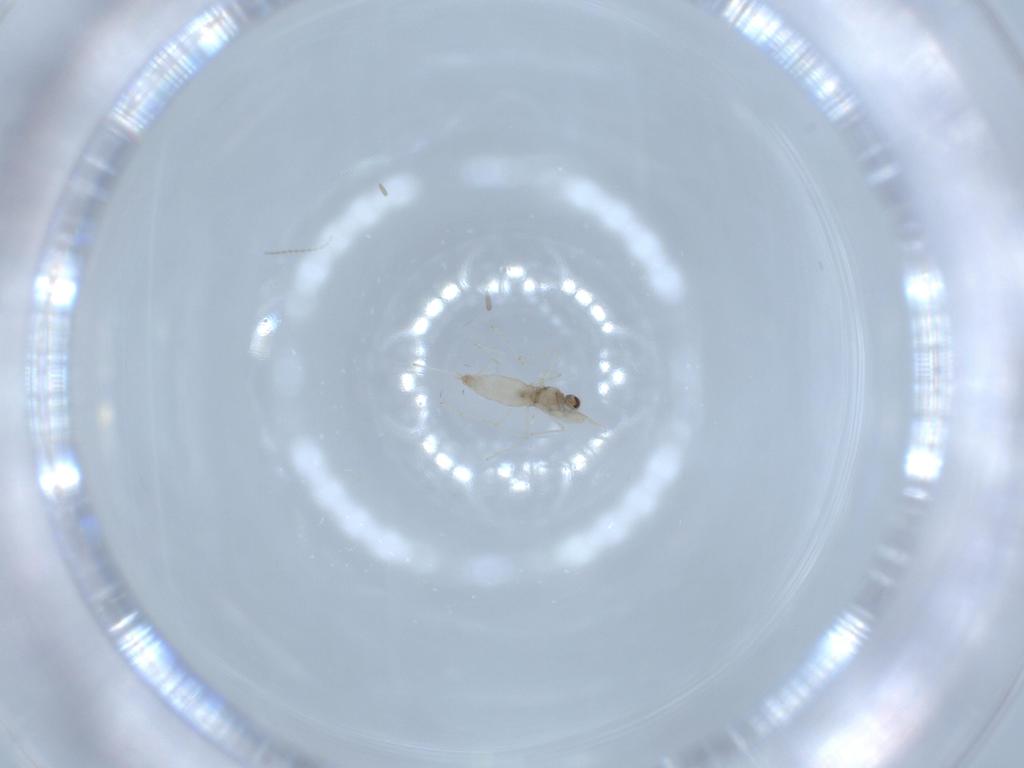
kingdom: Animalia
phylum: Arthropoda
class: Insecta
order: Diptera
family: Cecidomyiidae
